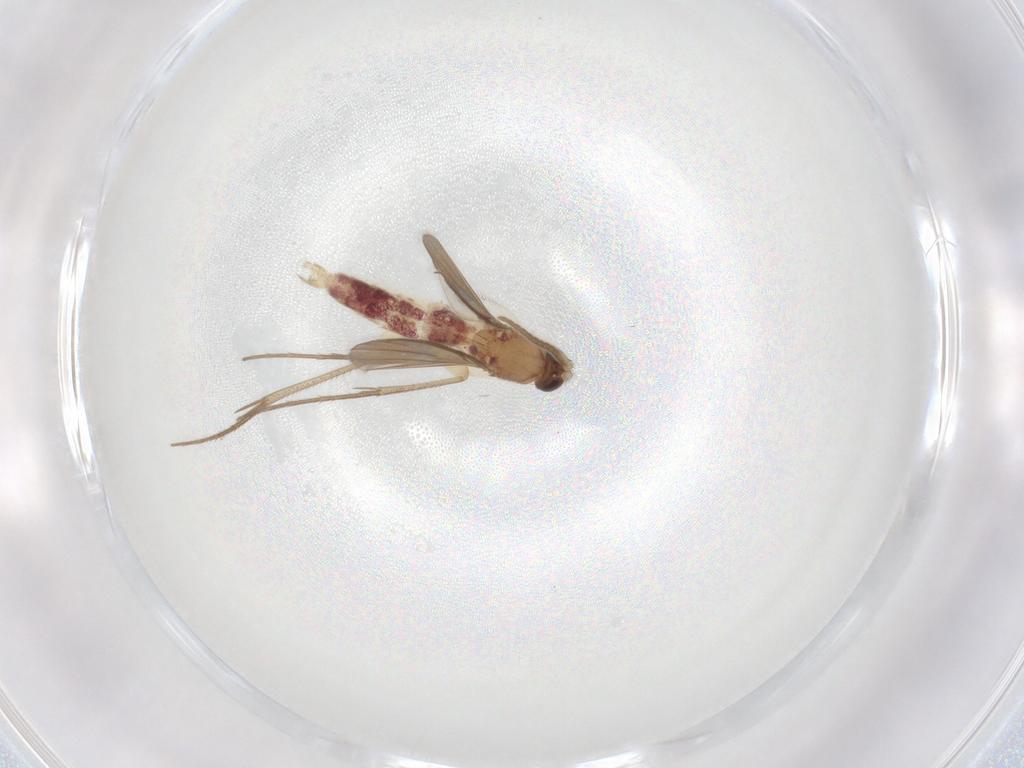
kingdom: Animalia
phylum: Arthropoda
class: Insecta
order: Diptera
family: Mycetophilidae
